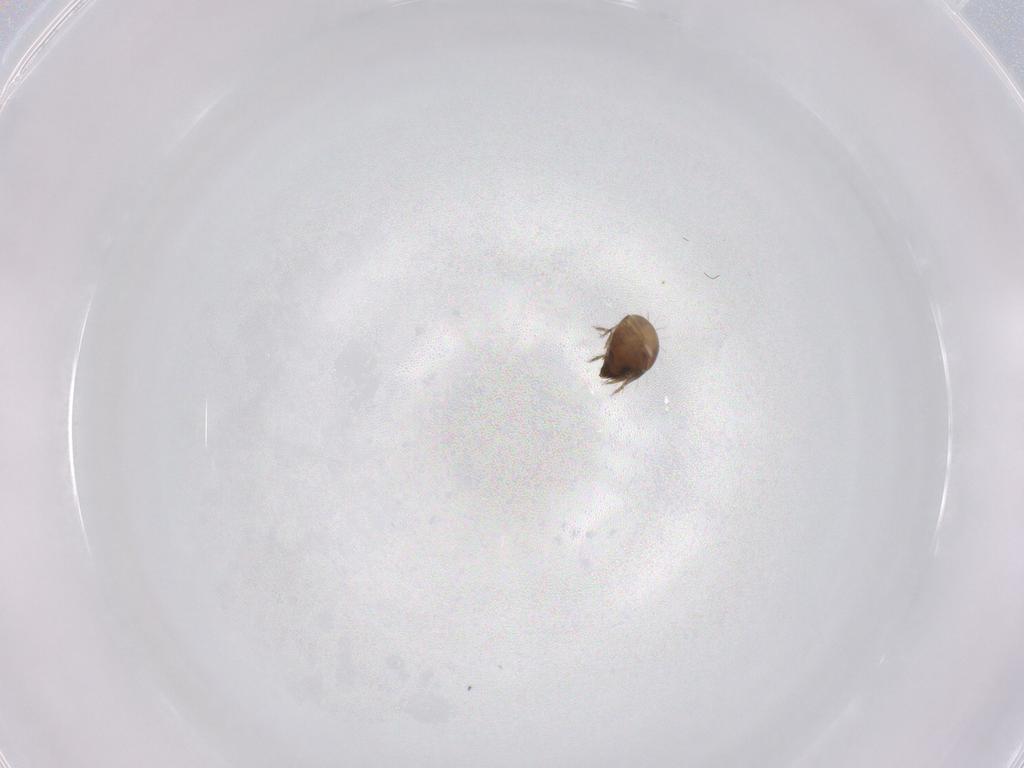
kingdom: Animalia
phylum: Arthropoda
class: Arachnida
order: Sarcoptiformes
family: Ceratozetidae
